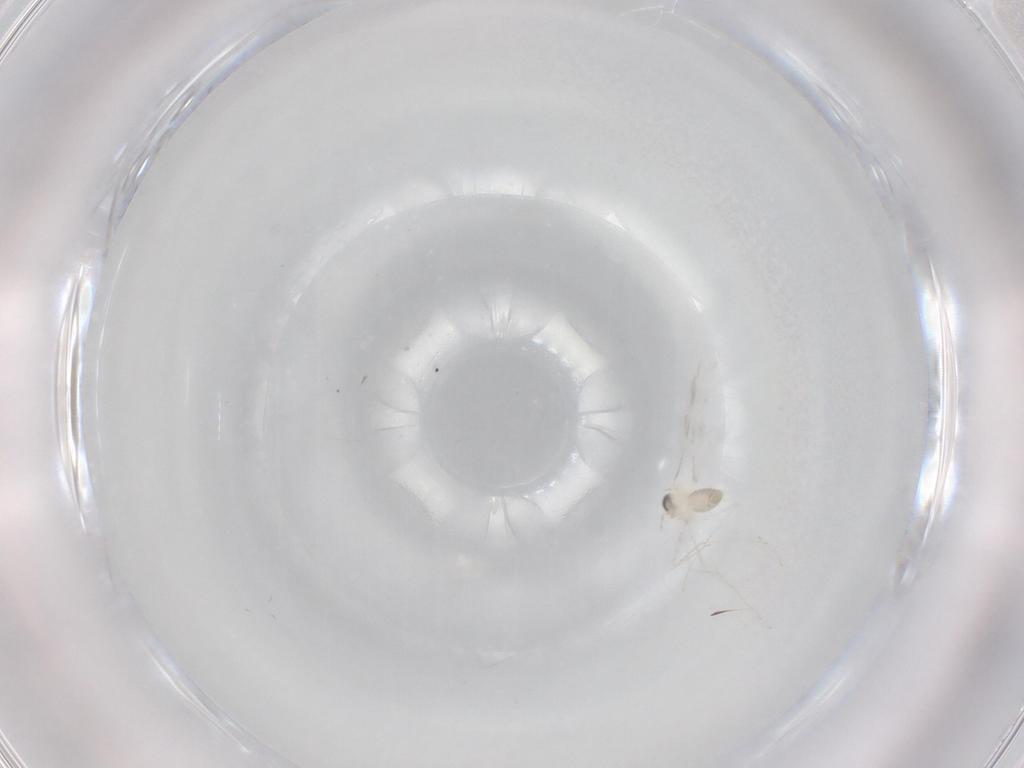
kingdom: Animalia
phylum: Arthropoda
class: Insecta
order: Diptera
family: Cecidomyiidae
